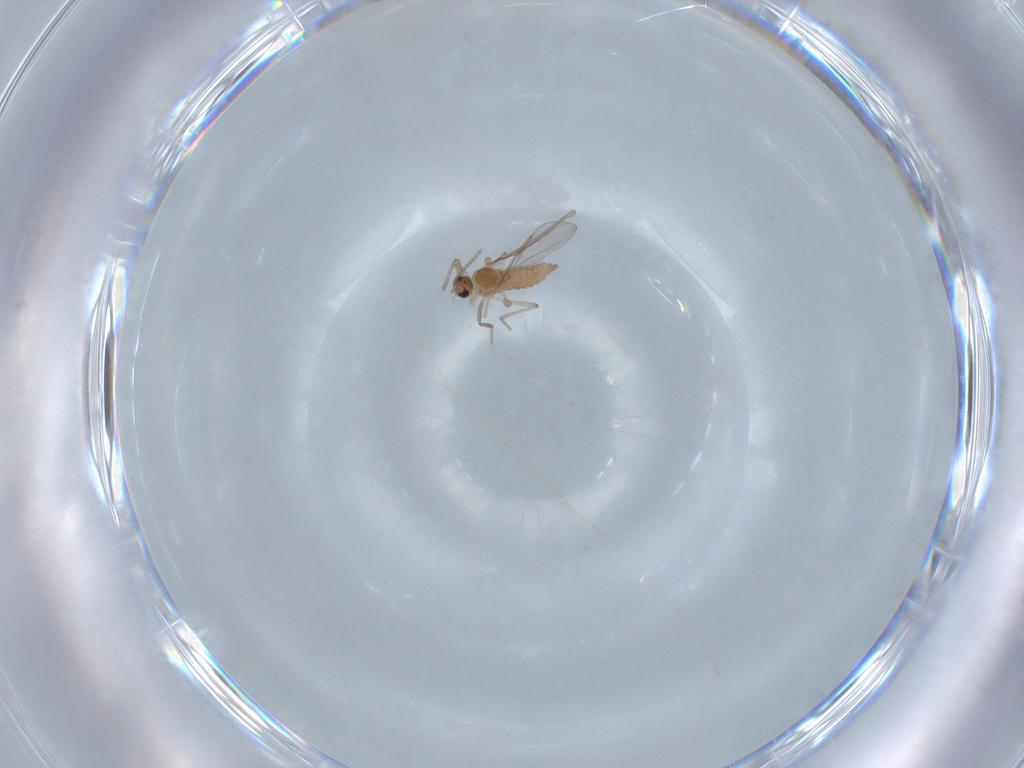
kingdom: Animalia
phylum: Arthropoda
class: Insecta
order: Diptera
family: Cecidomyiidae
